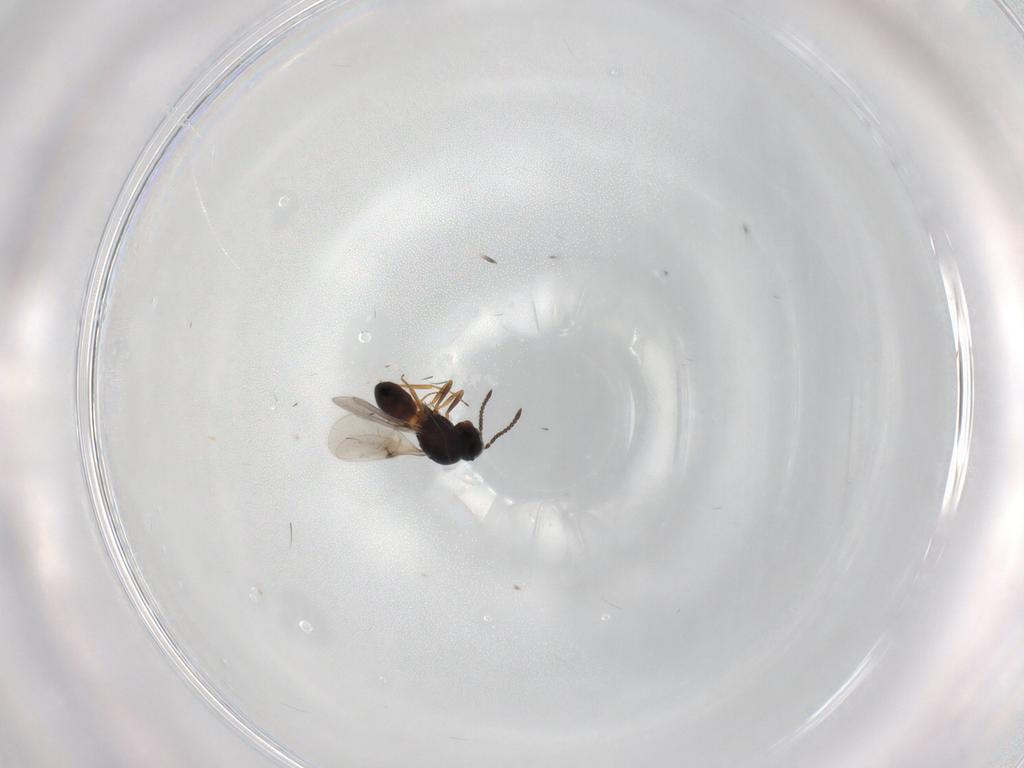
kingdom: Animalia
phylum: Arthropoda
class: Insecta
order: Hymenoptera
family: Scelionidae
